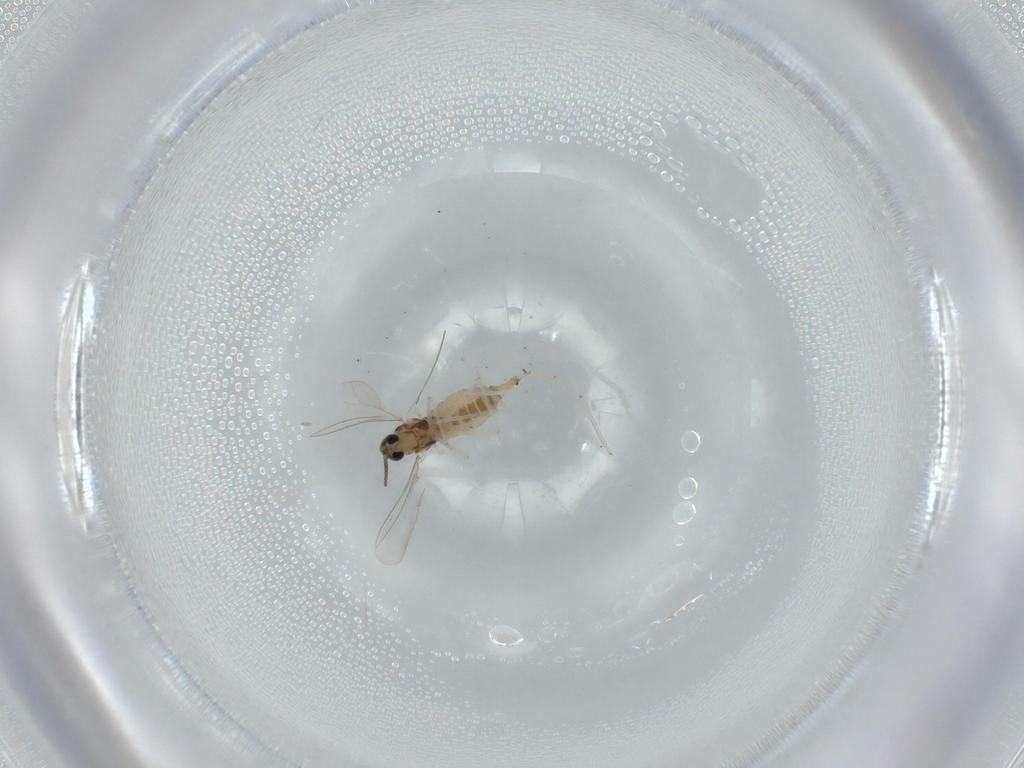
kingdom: Animalia
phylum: Arthropoda
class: Insecta
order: Diptera
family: Cecidomyiidae
